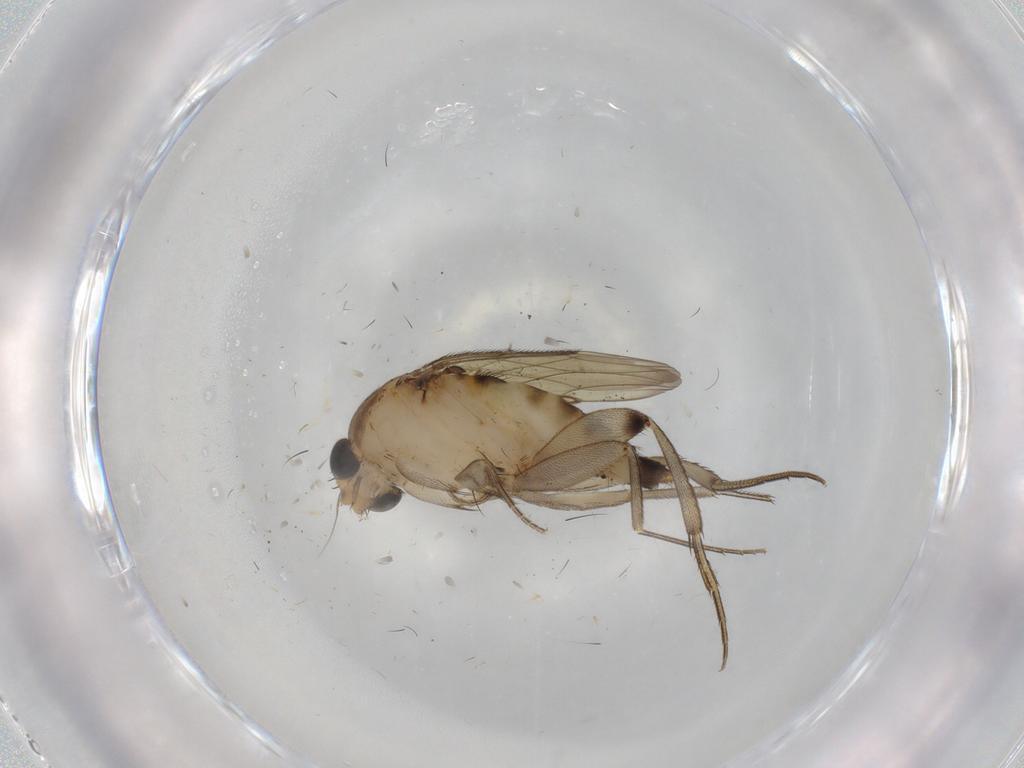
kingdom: Animalia
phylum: Arthropoda
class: Insecta
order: Diptera
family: Phoridae
